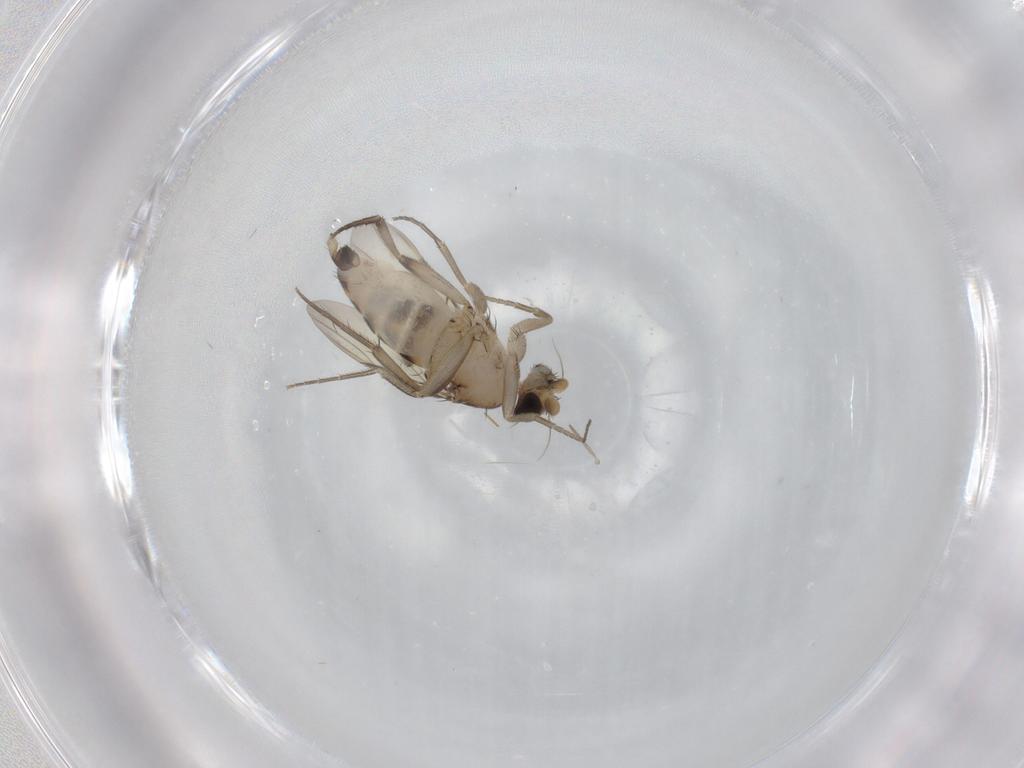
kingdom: Animalia
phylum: Arthropoda
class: Insecta
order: Diptera
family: Phoridae
